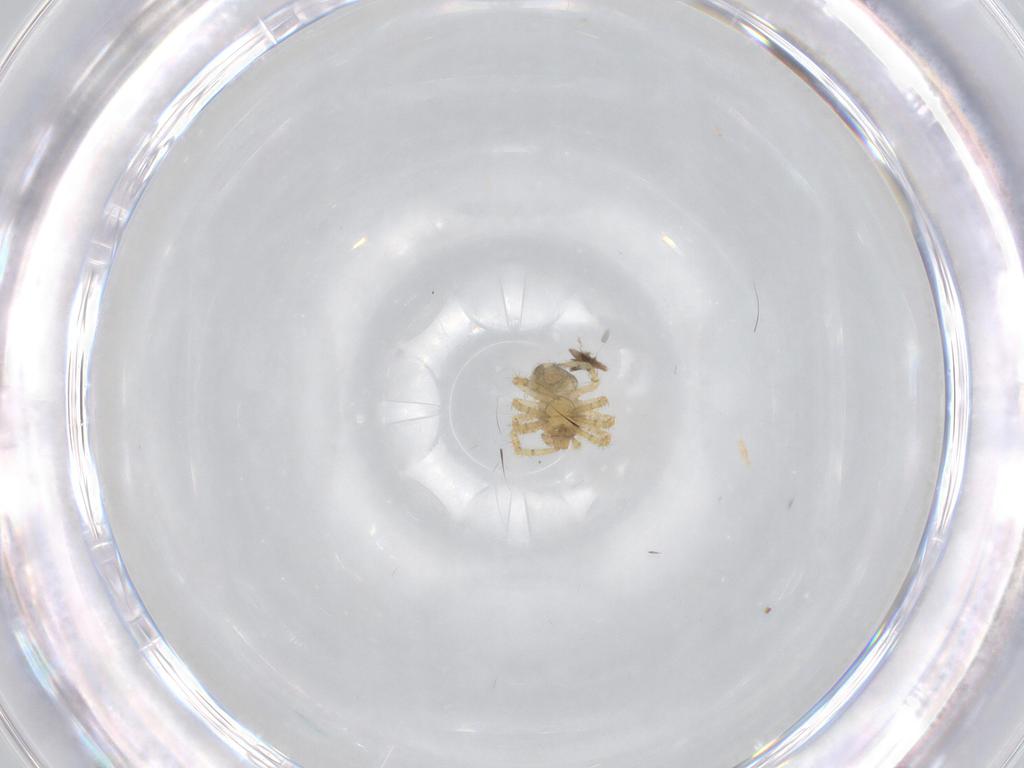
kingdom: Animalia
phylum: Arthropoda
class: Arachnida
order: Araneae
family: Theridiidae
